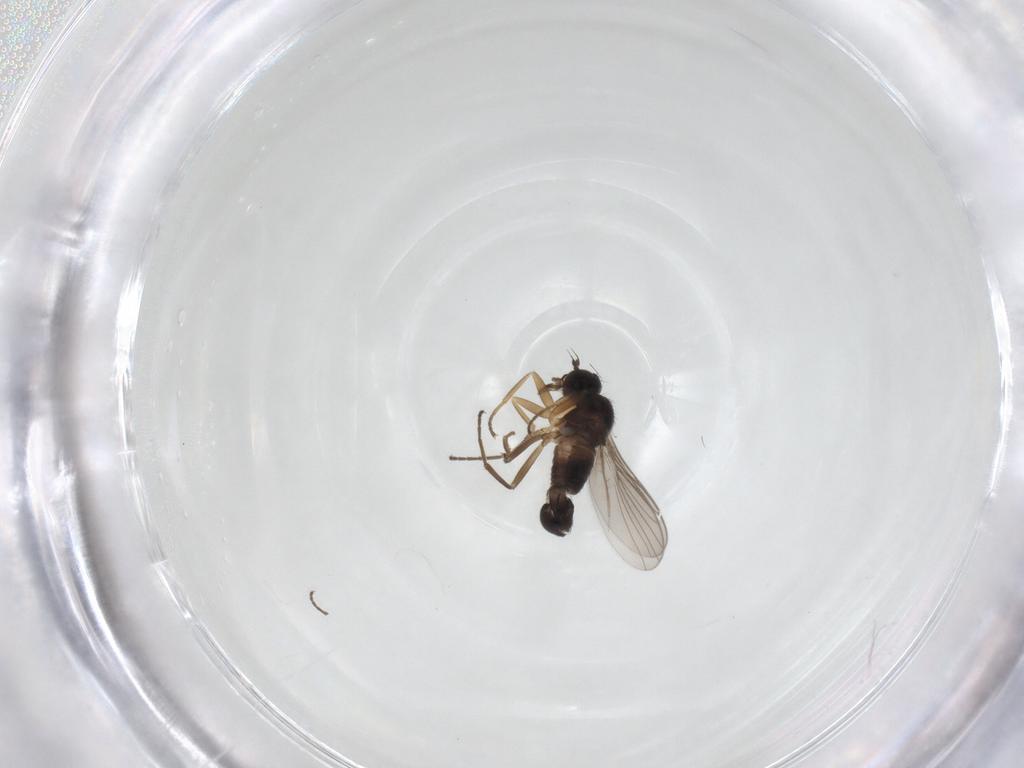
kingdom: Animalia
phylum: Arthropoda
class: Insecta
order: Diptera
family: Hybotidae
